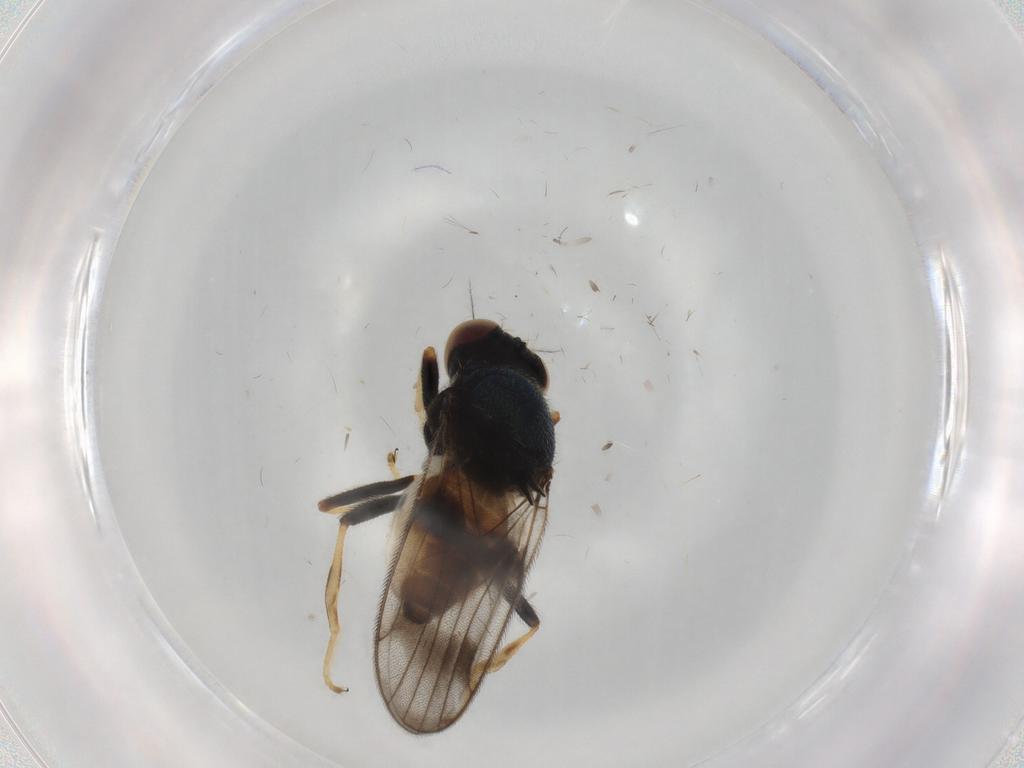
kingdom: Animalia
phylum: Arthropoda
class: Insecta
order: Diptera
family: Chloropidae
